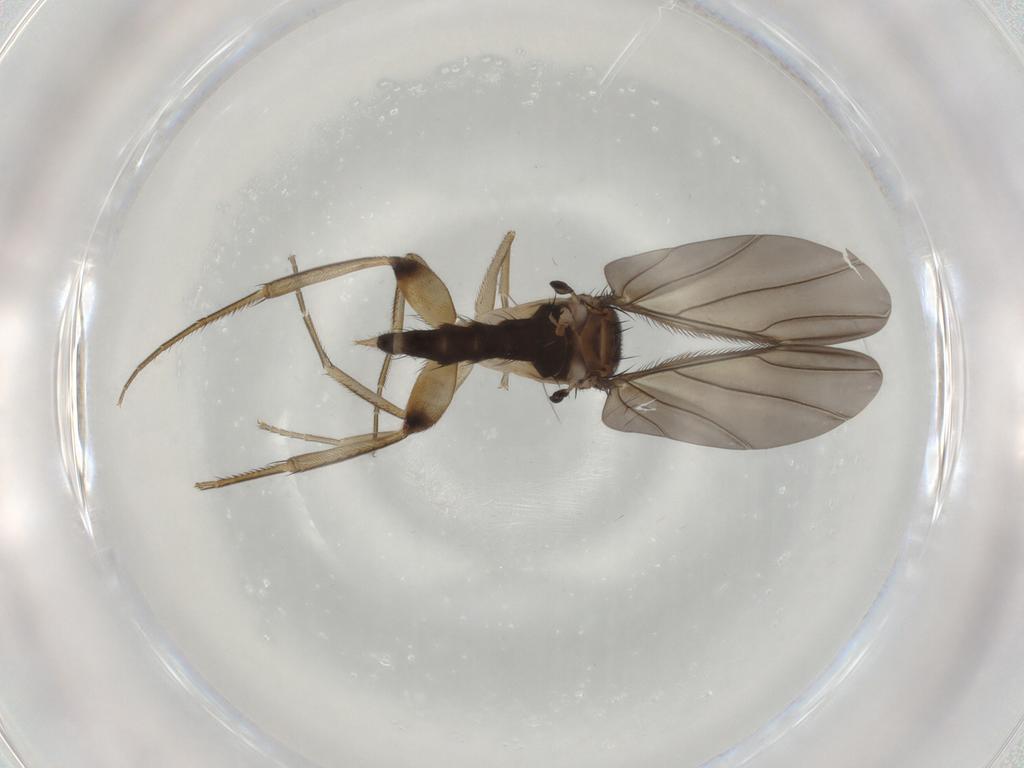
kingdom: Animalia
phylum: Arthropoda
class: Insecta
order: Diptera
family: Phoridae
